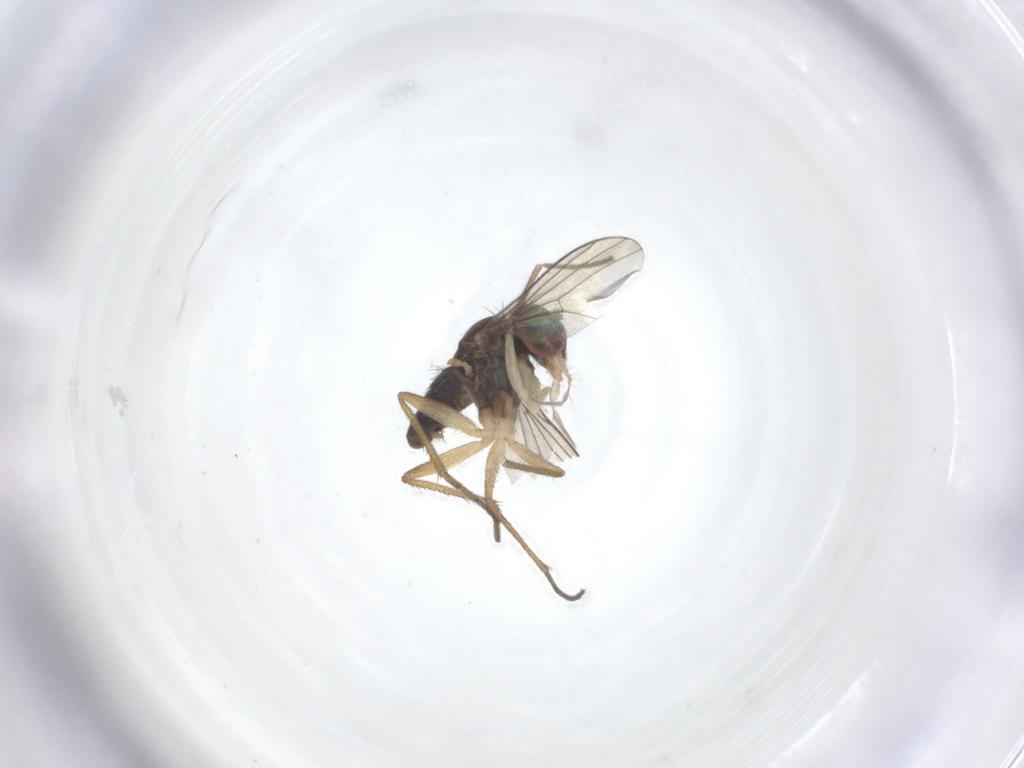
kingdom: Animalia
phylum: Arthropoda
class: Insecta
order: Diptera
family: Dolichopodidae
